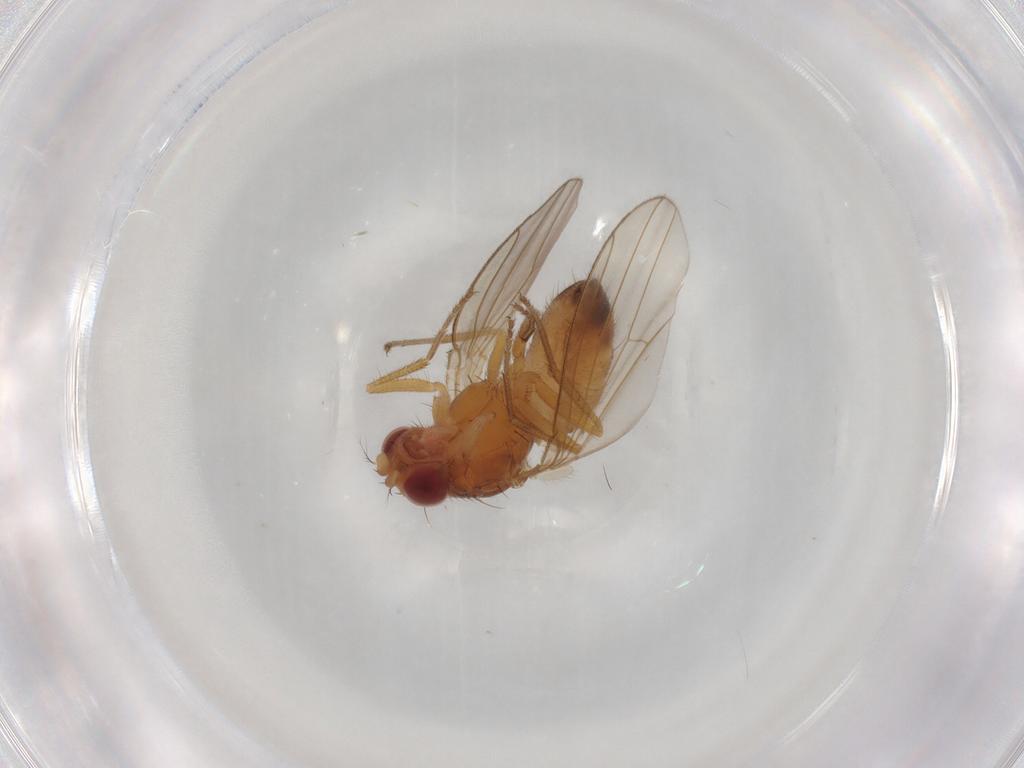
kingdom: Animalia
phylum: Arthropoda
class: Insecta
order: Diptera
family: Drosophilidae
